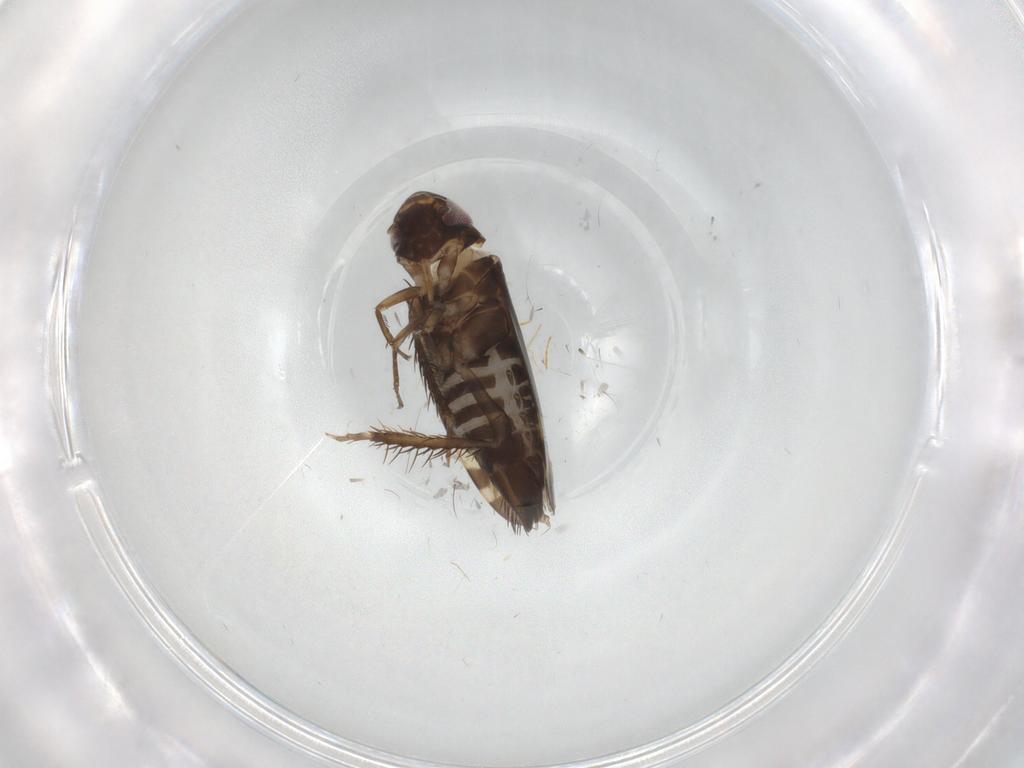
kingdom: Animalia
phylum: Arthropoda
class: Insecta
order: Hemiptera
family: Cicadellidae
